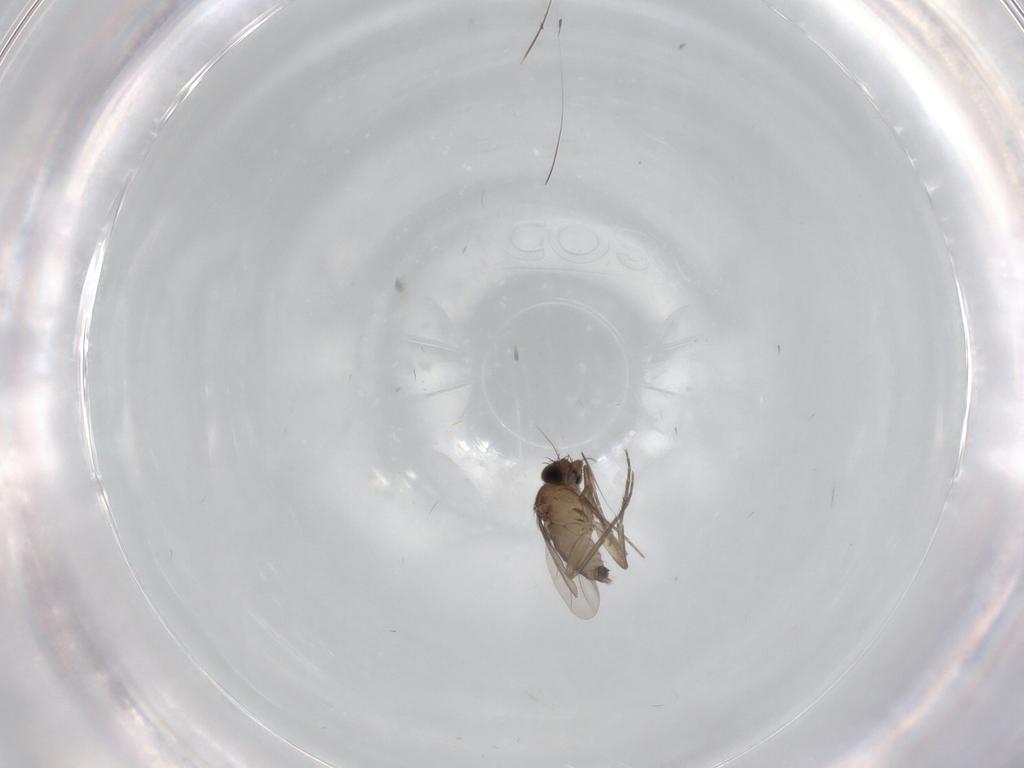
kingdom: Animalia
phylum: Arthropoda
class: Insecta
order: Diptera
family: Phoridae
